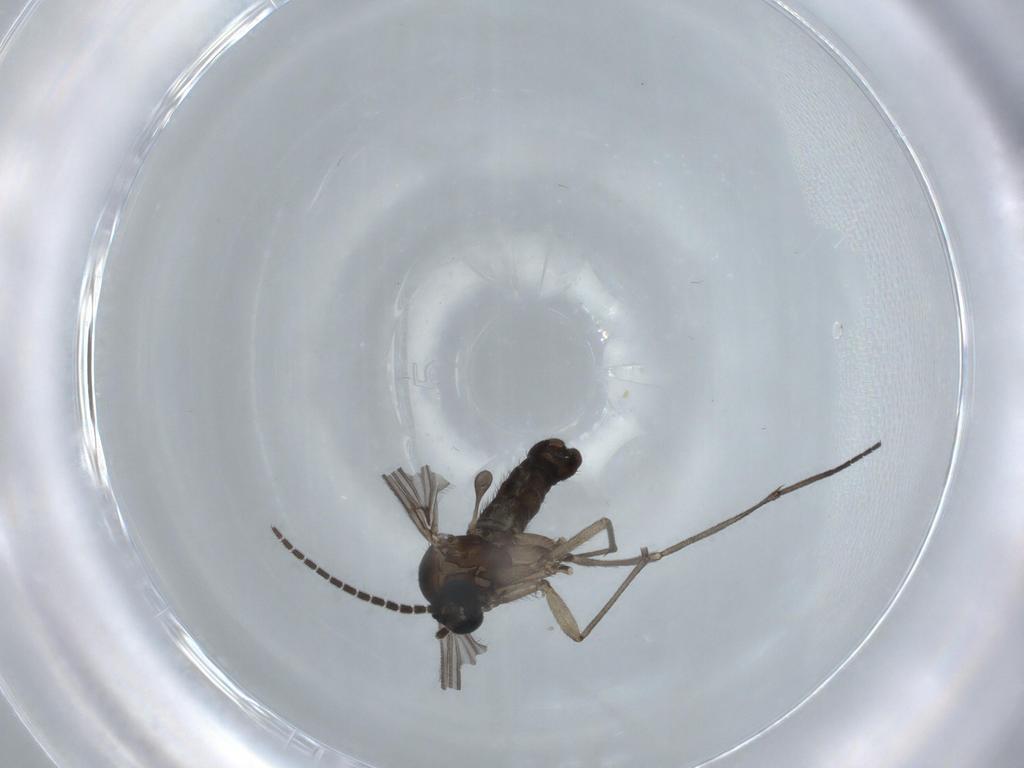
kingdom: Animalia
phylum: Arthropoda
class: Insecta
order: Diptera
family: Sciaridae
